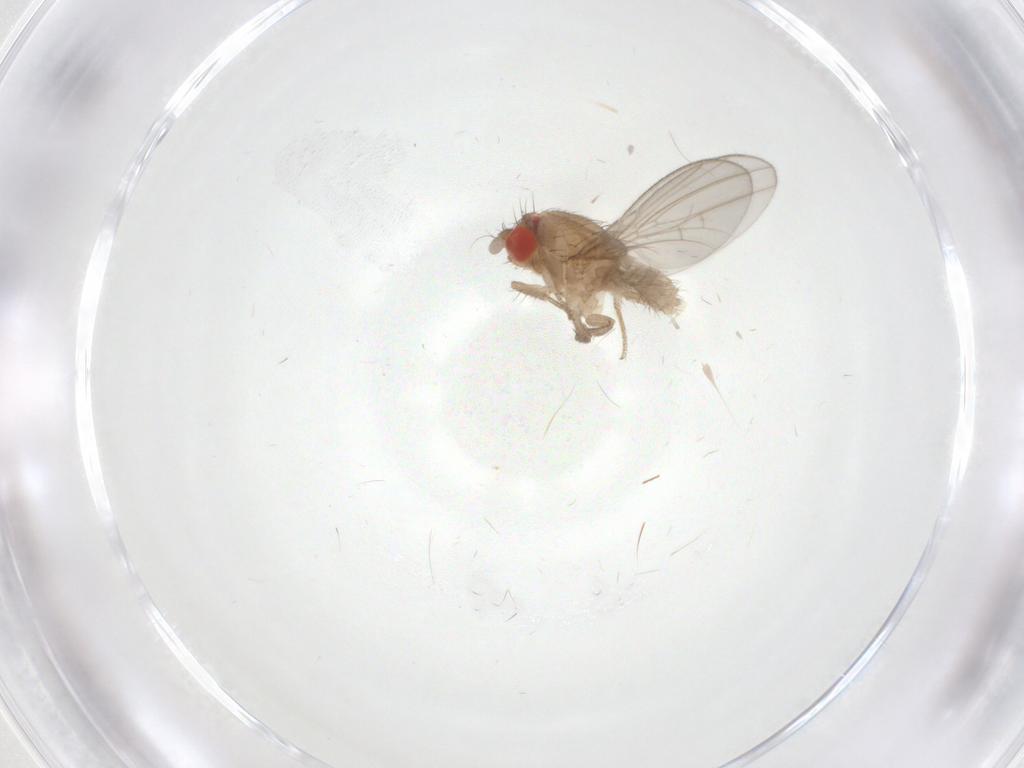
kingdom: Animalia
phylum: Arthropoda
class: Insecta
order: Diptera
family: Drosophilidae
